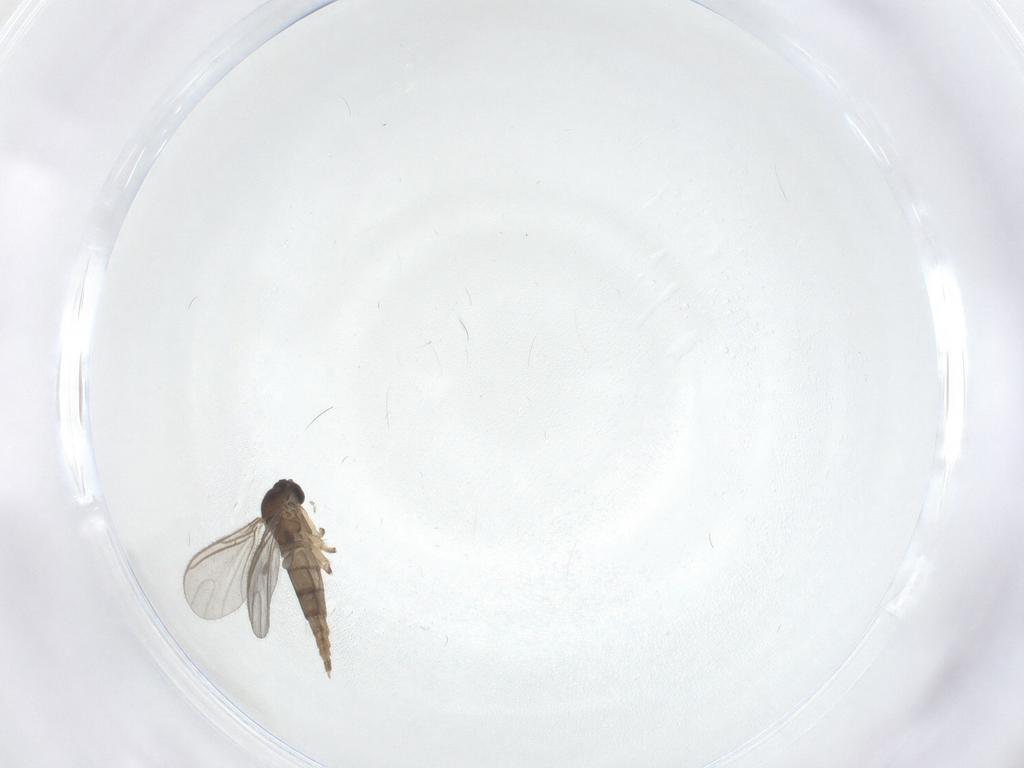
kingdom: Animalia
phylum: Arthropoda
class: Insecta
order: Diptera
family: Sciaridae
